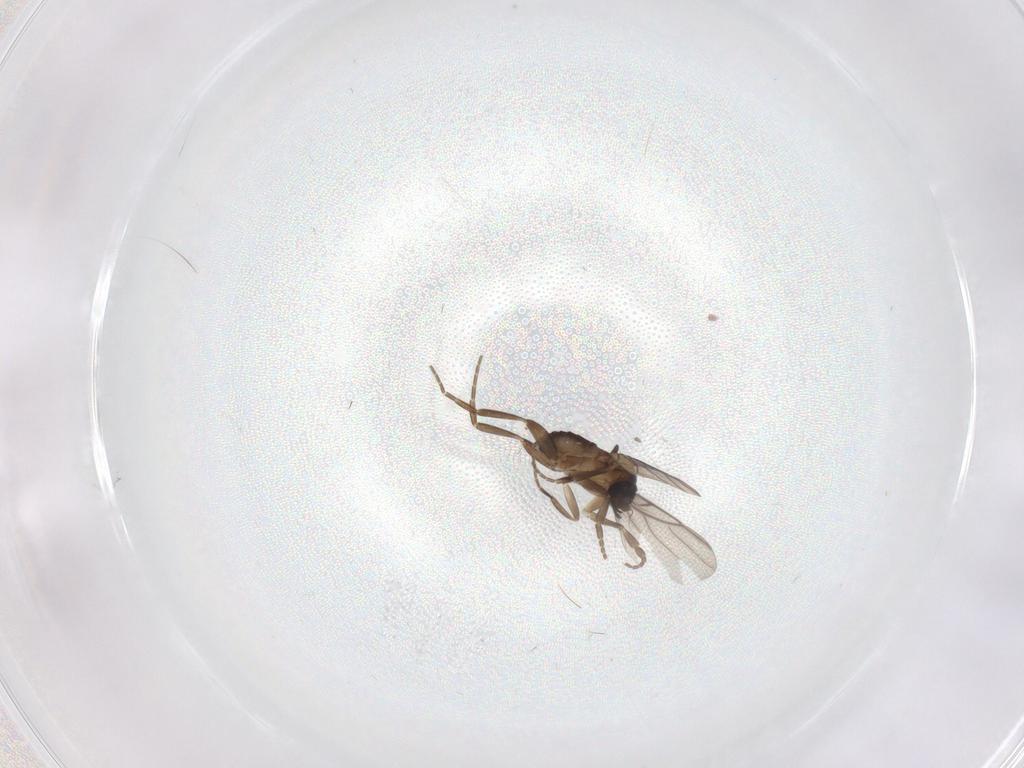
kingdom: Animalia
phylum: Arthropoda
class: Insecta
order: Diptera
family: Phoridae
